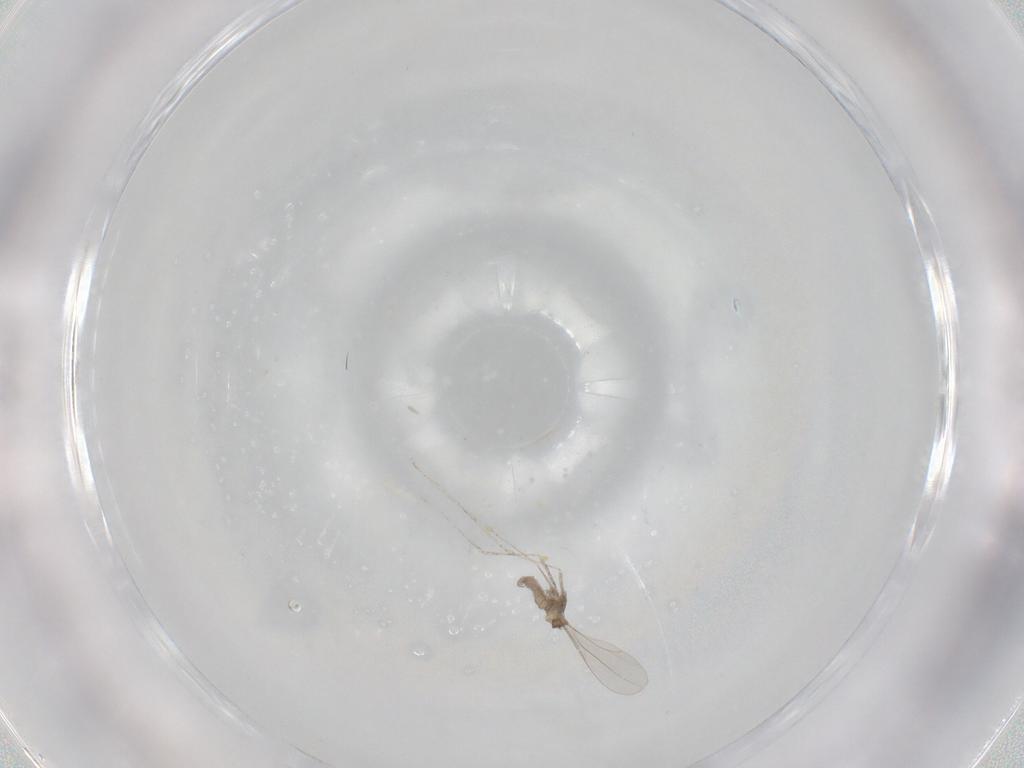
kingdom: Animalia
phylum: Arthropoda
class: Insecta
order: Diptera
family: Chironomidae
